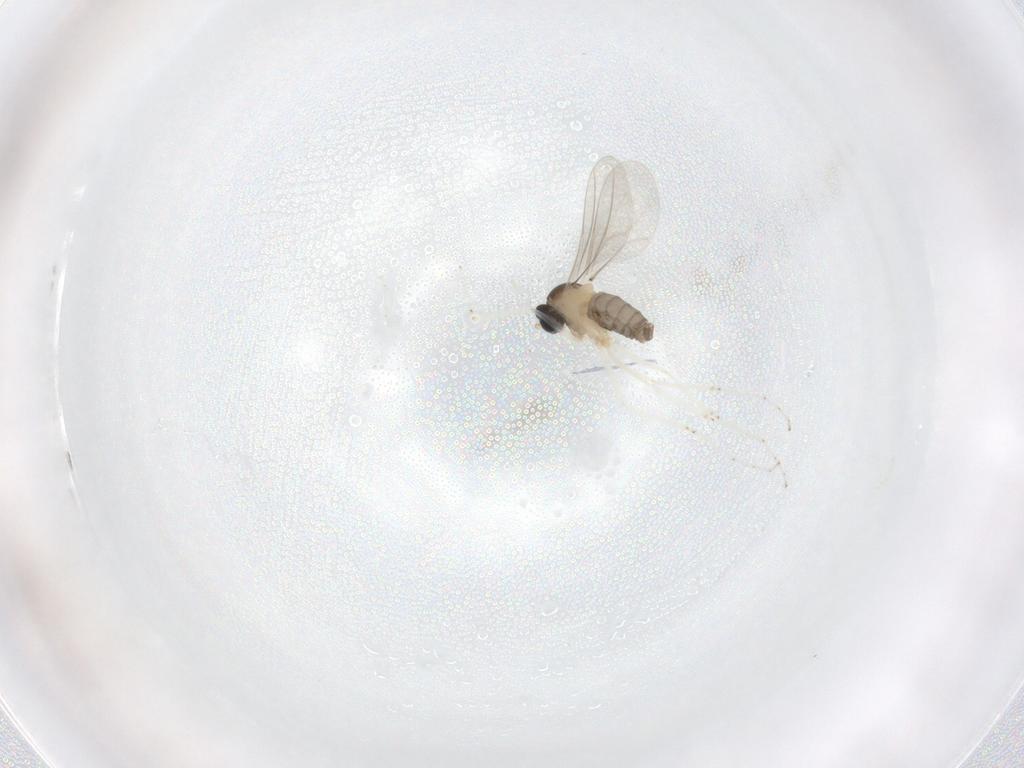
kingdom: Animalia
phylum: Arthropoda
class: Insecta
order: Diptera
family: Cecidomyiidae
